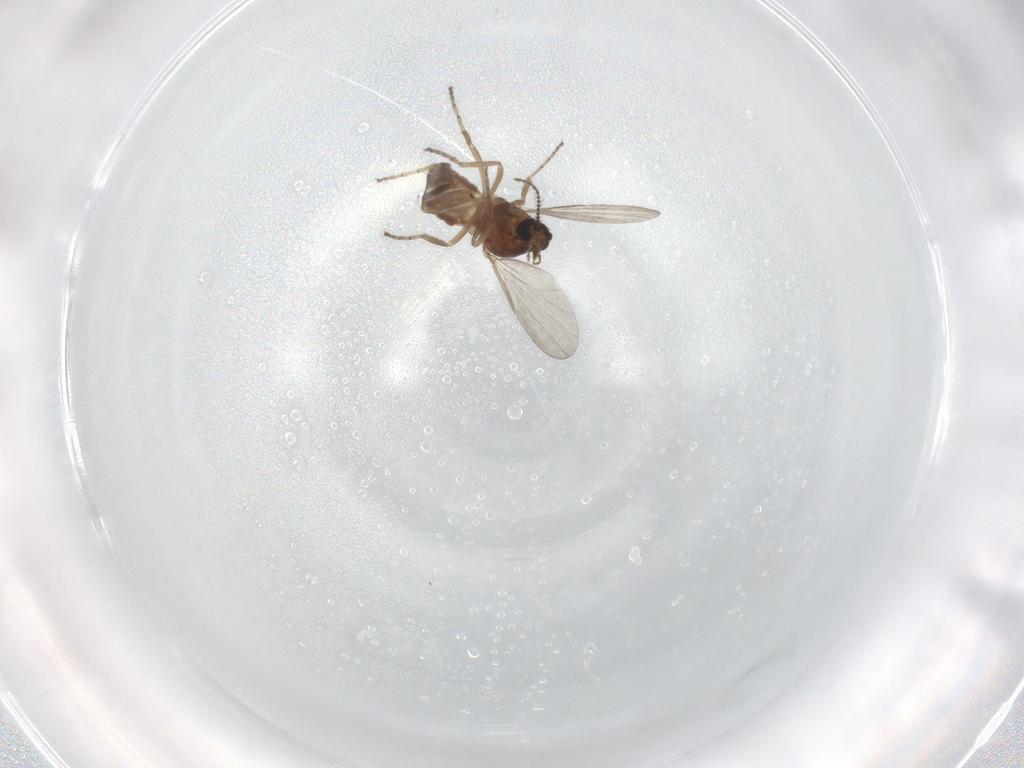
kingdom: Animalia
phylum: Arthropoda
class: Insecta
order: Diptera
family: Ceratopogonidae
